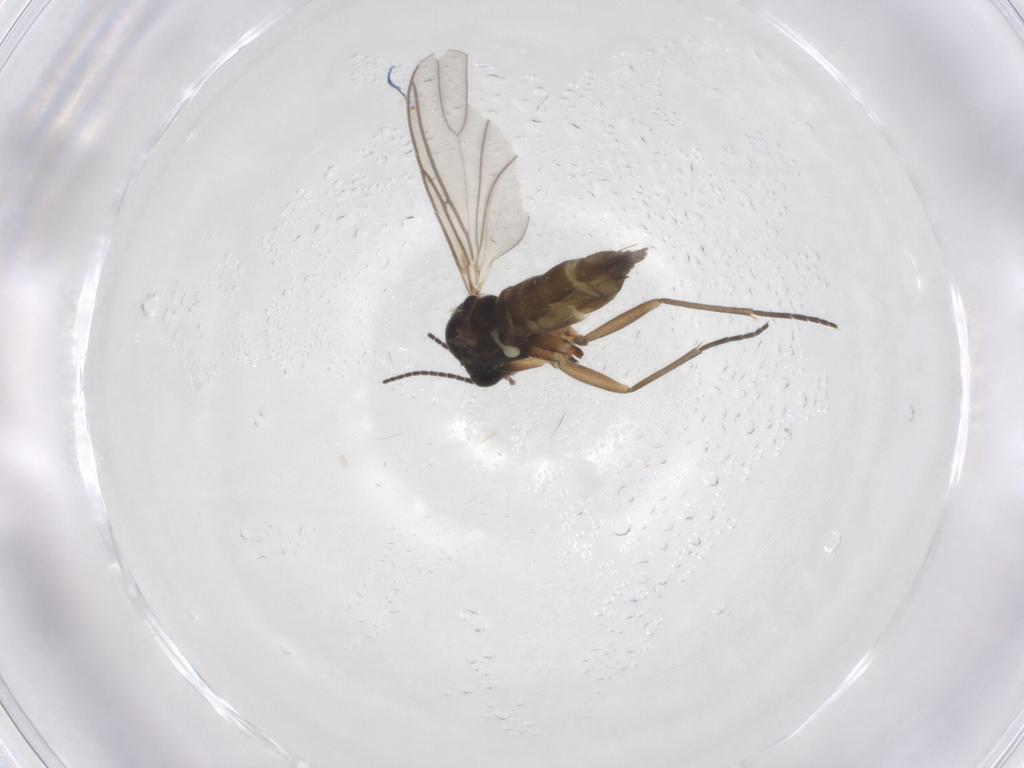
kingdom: Animalia
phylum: Arthropoda
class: Insecta
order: Diptera
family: Sciaridae
